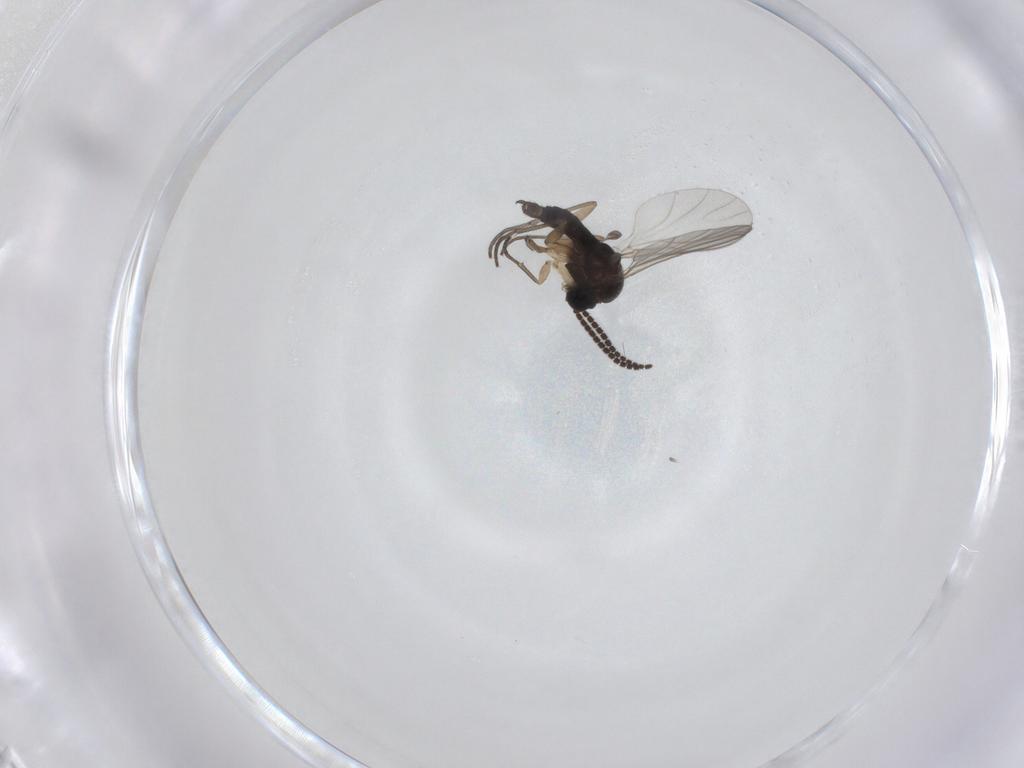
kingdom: Animalia
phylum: Arthropoda
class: Insecta
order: Diptera
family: Sciaridae
